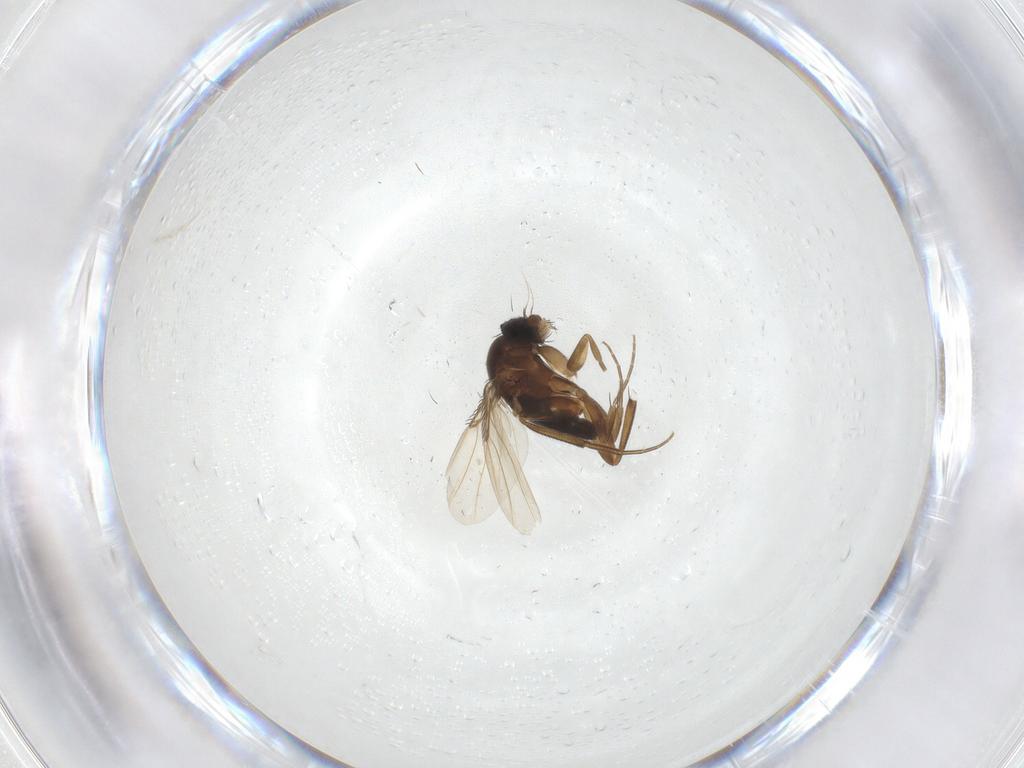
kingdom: Animalia
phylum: Arthropoda
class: Insecta
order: Diptera
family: Phoridae
